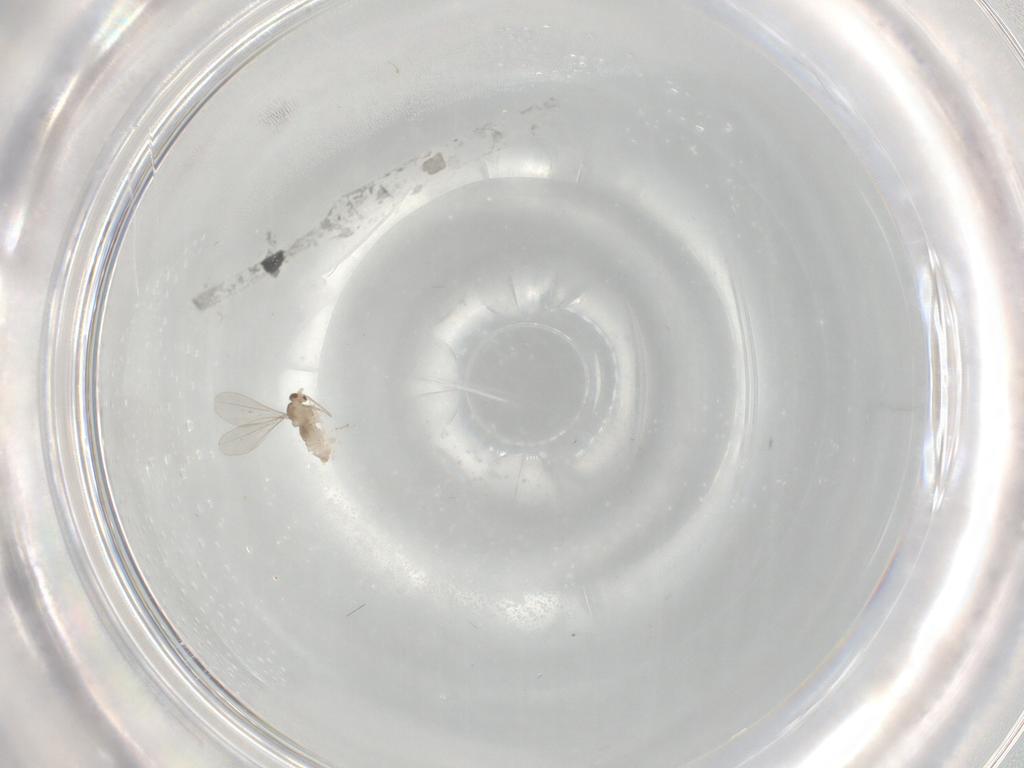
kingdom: Animalia
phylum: Arthropoda
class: Insecta
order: Diptera
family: Cecidomyiidae
